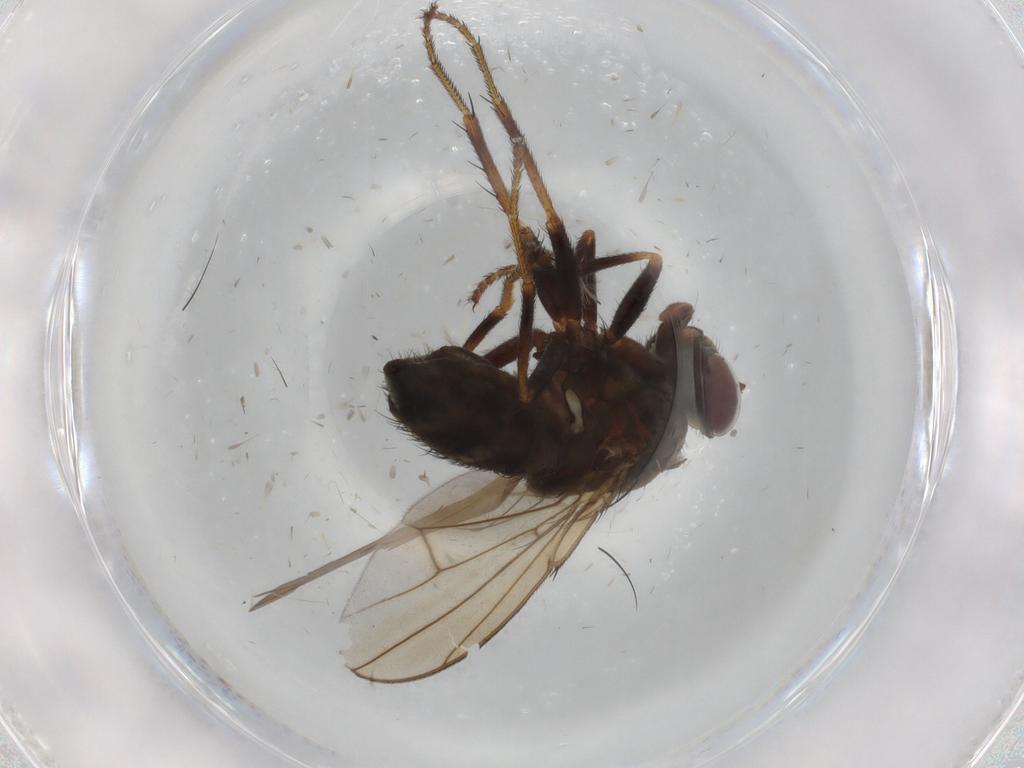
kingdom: Animalia
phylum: Arthropoda
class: Insecta
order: Diptera
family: Ephydridae
